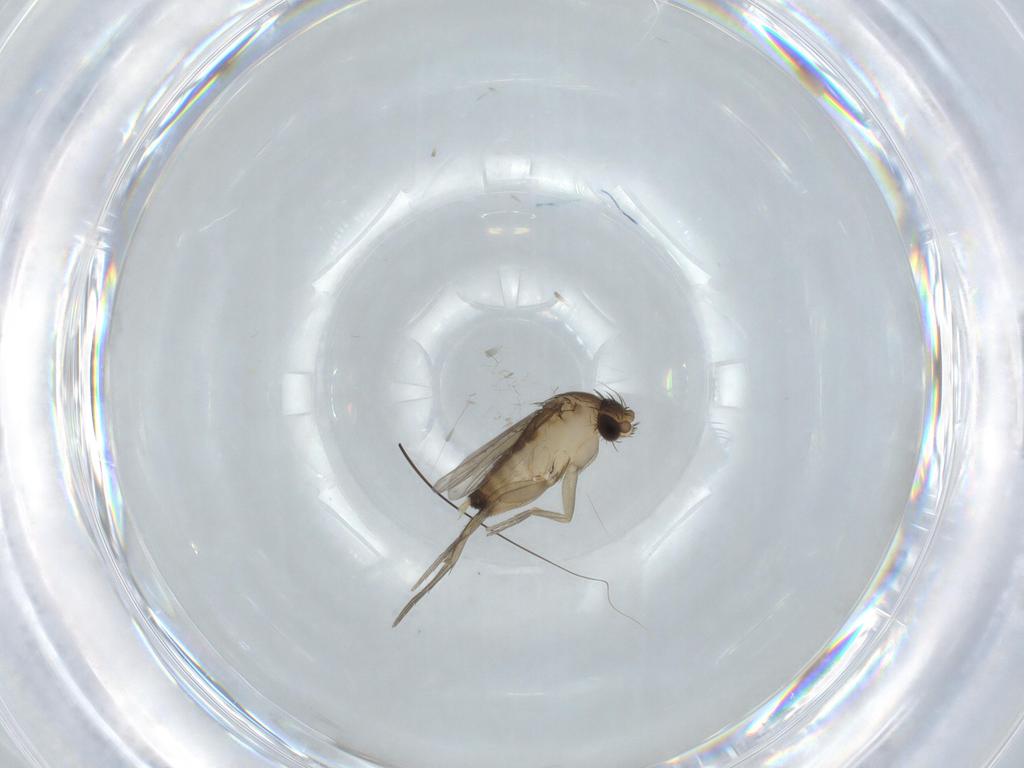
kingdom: Animalia
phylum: Arthropoda
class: Insecta
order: Diptera
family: Phoridae
